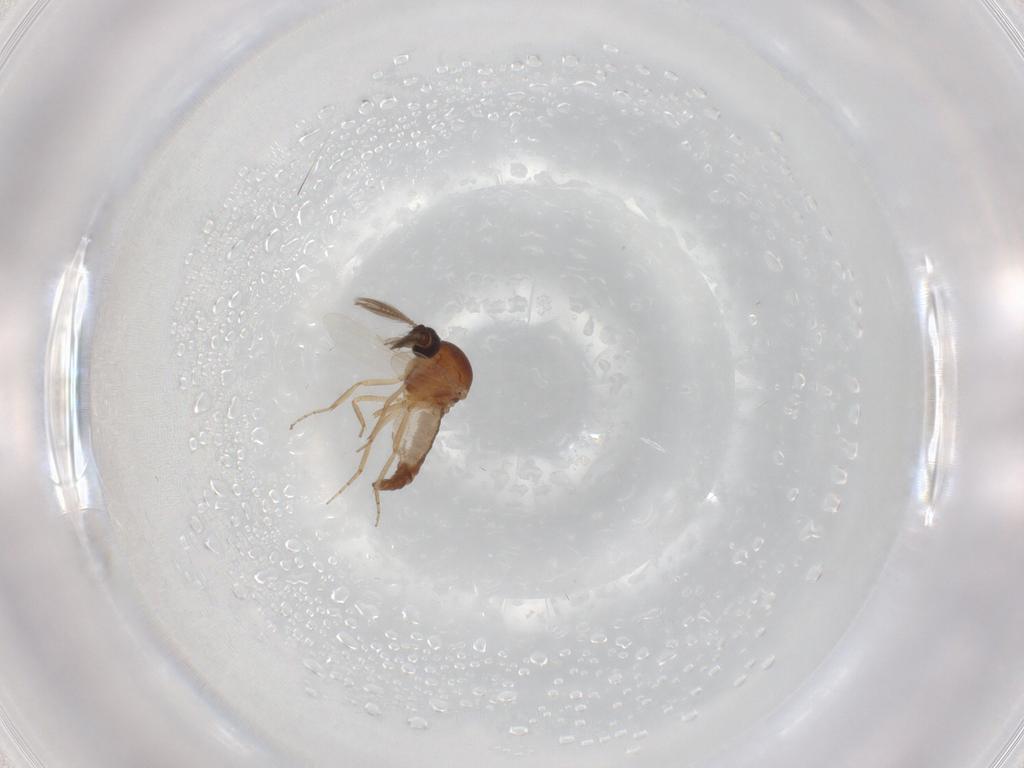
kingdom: Animalia
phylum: Arthropoda
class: Insecta
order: Diptera
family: Ceratopogonidae
